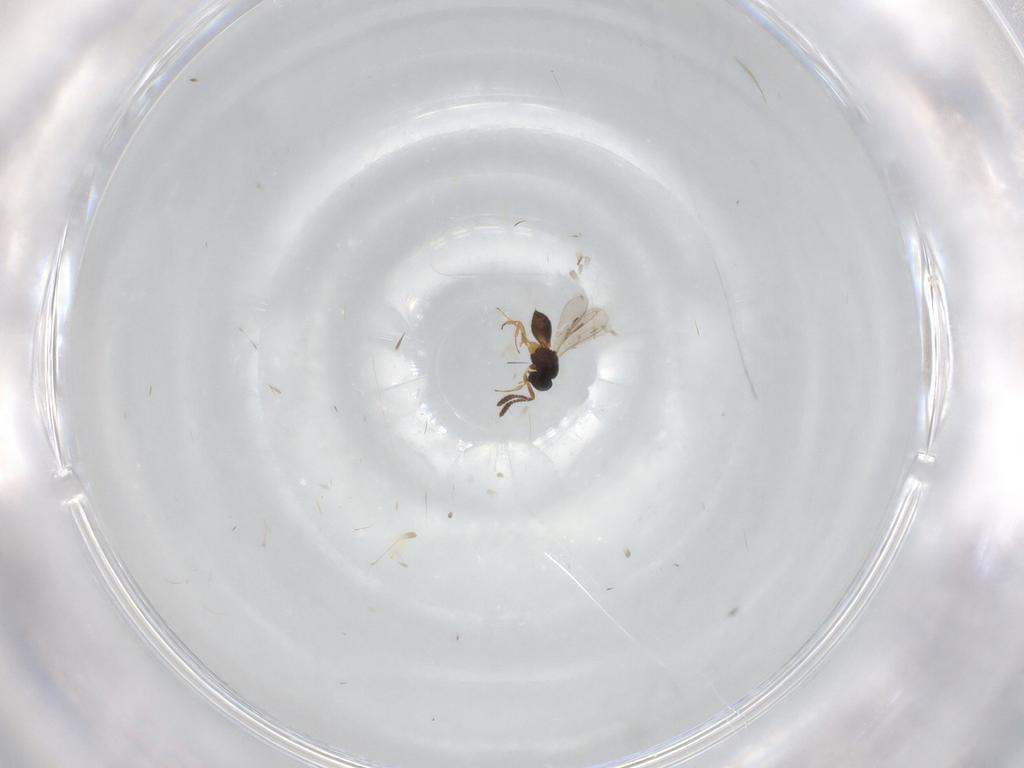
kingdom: Animalia
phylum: Arthropoda
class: Insecta
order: Hymenoptera
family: Scelionidae
